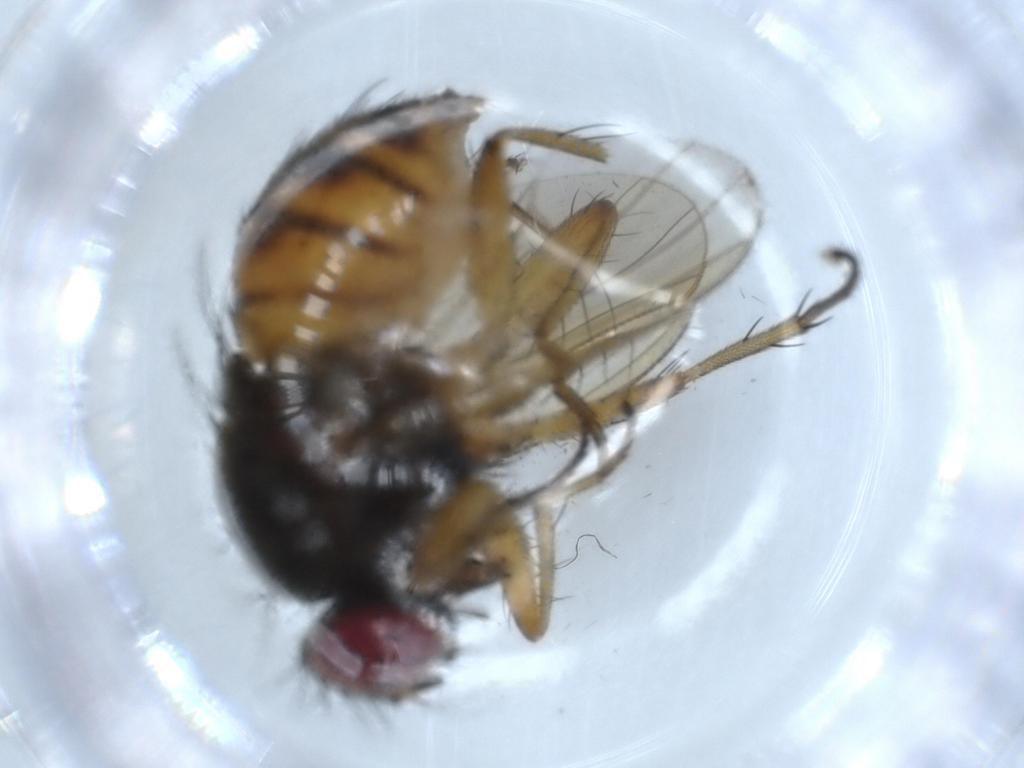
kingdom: Animalia
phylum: Arthropoda
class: Insecta
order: Diptera
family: Muscidae
